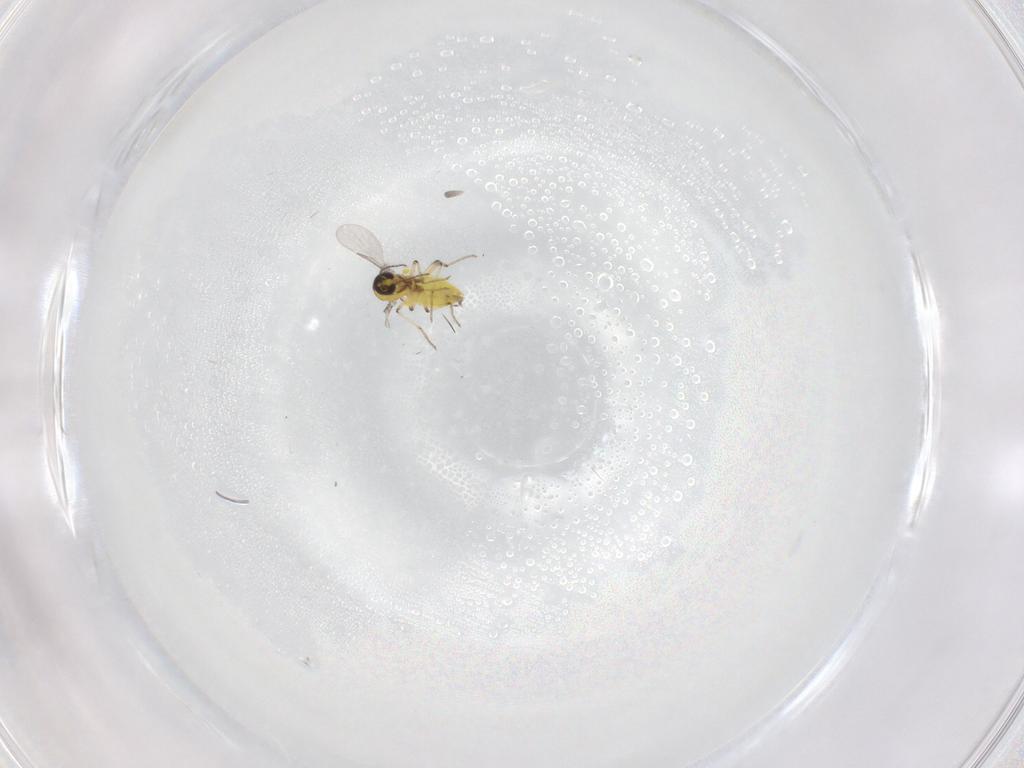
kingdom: Animalia
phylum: Arthropoda
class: Insecta
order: Diptera
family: Ceratopogonidae
